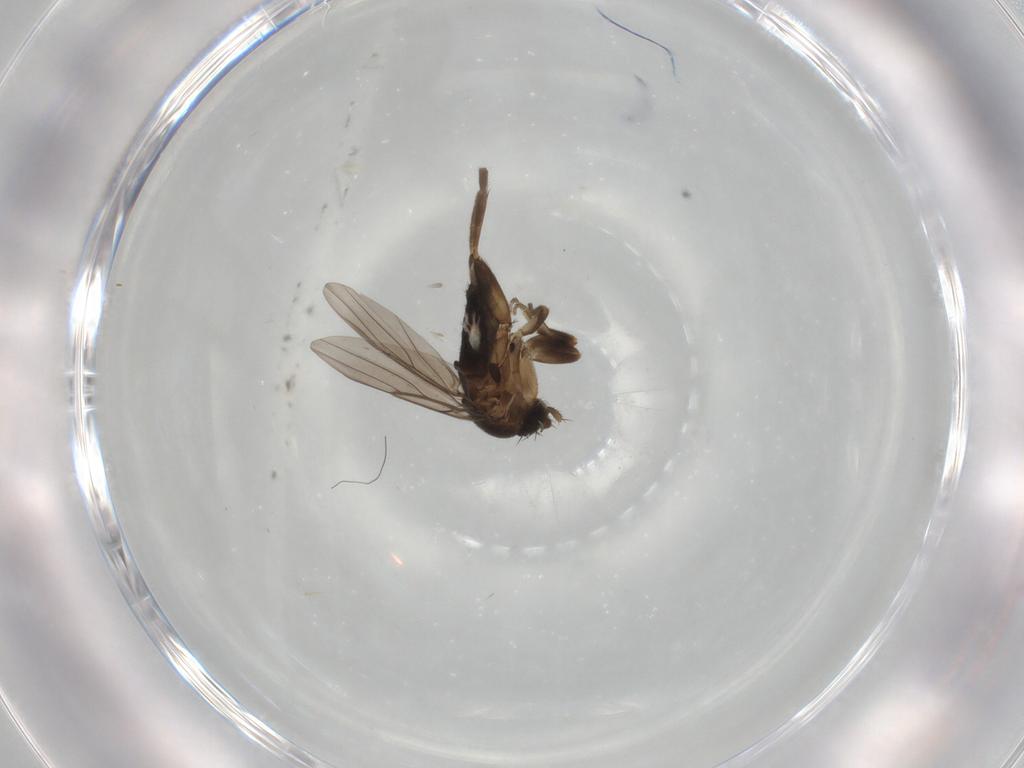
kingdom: Animalia
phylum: Arthropoda
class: Insecta
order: Diptera
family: Phoridae
